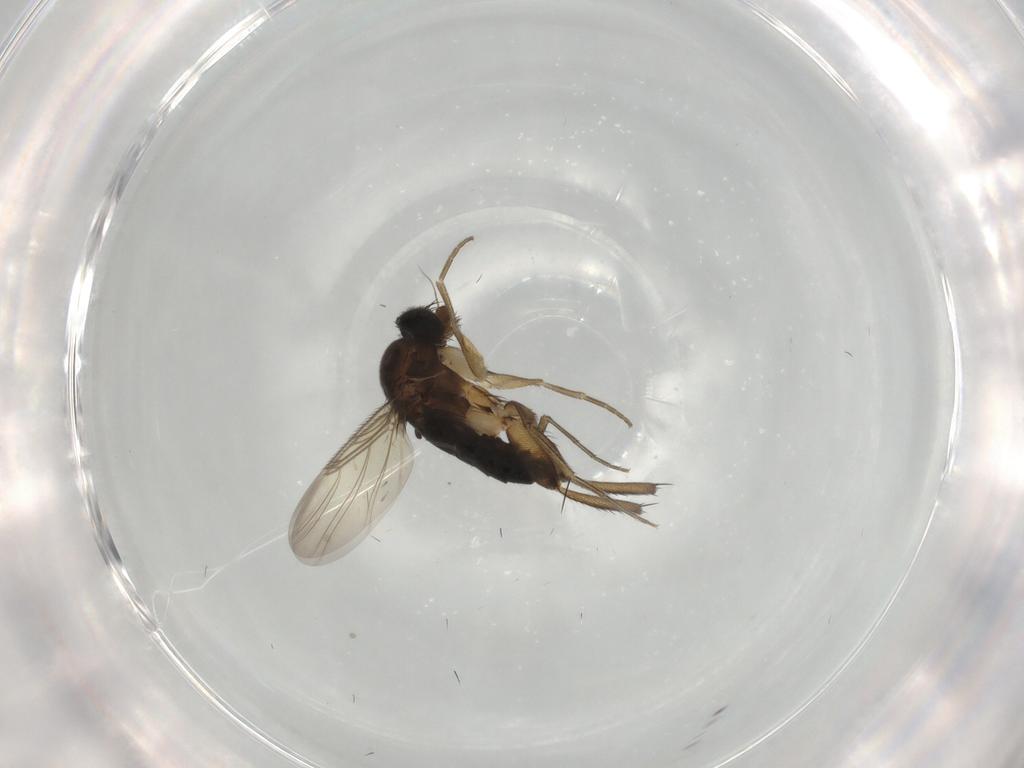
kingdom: Animalia
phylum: Arthropoda
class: Insecta
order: Diptera
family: Phoridae
